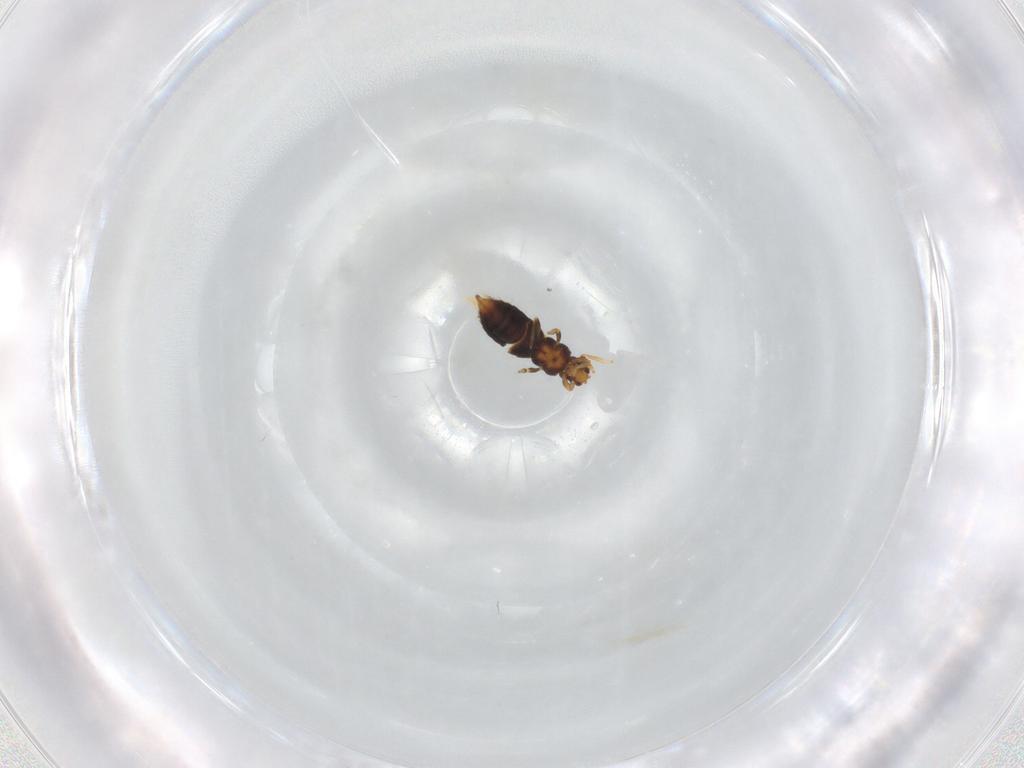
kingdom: Animalia
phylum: Arthropoda
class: Insecta
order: Thysanoptera
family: Thripidae
